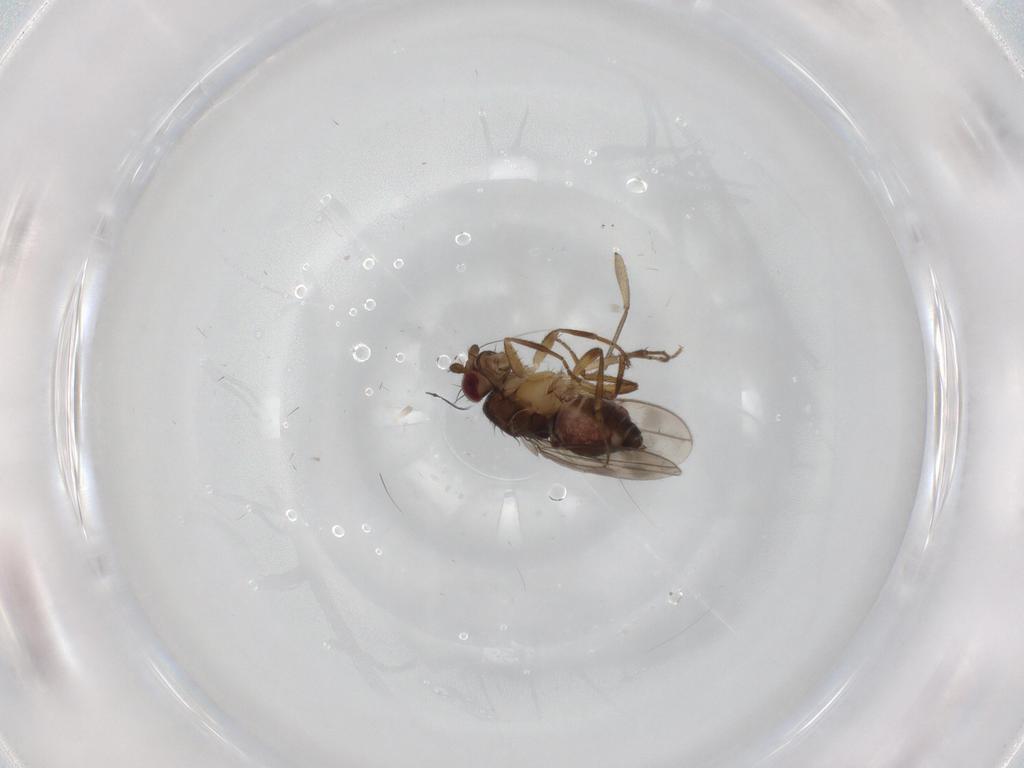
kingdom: Animalia
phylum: Arthropoda
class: Insecta
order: Diptera
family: Sphaeroceridae
